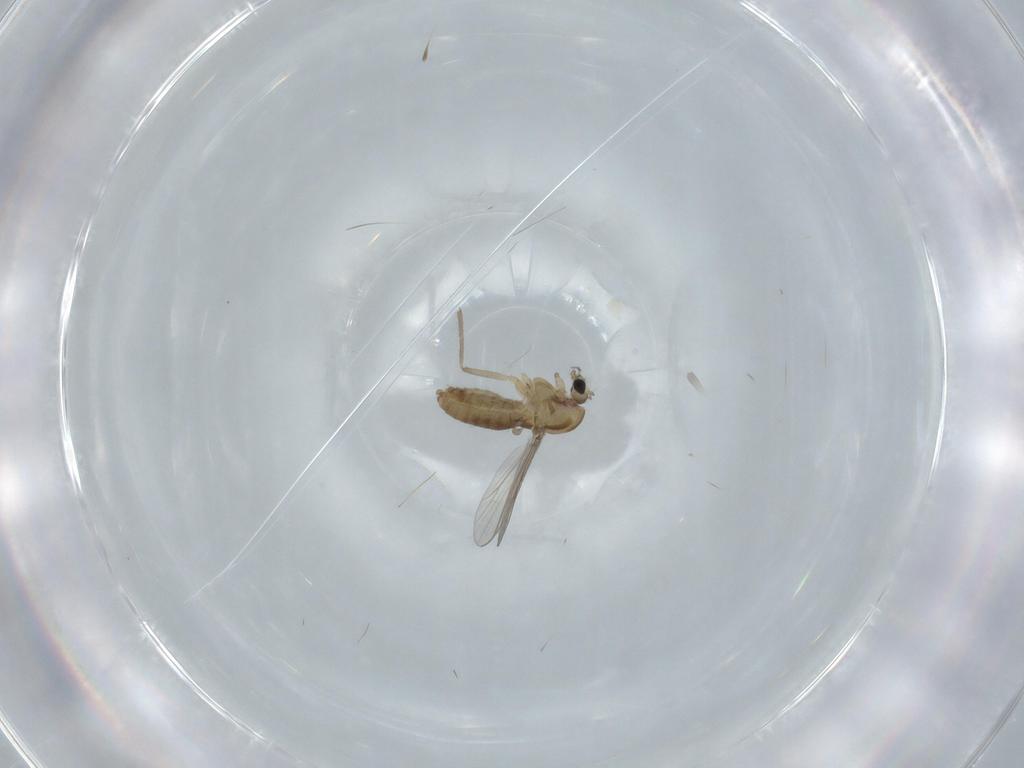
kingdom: Animalia
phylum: Arthropoda
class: Insecta
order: Diptera
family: Chironomidae
